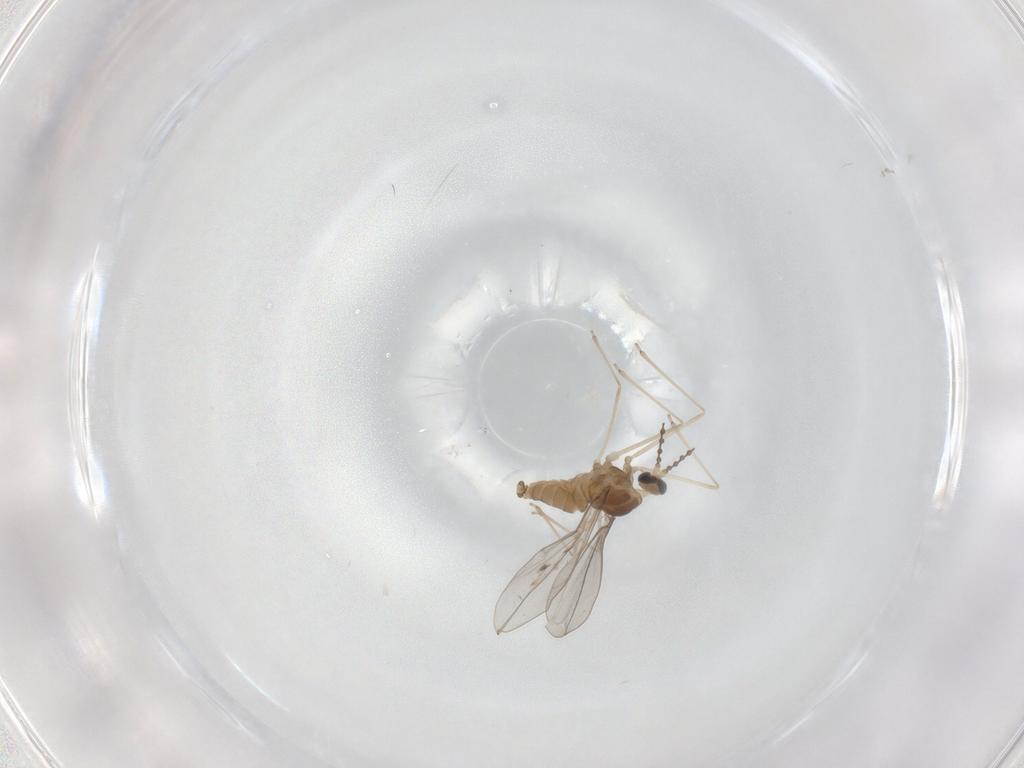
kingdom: Animalia
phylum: Arthropoda
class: Insecta
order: Diptera
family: Cecidomyiidae
